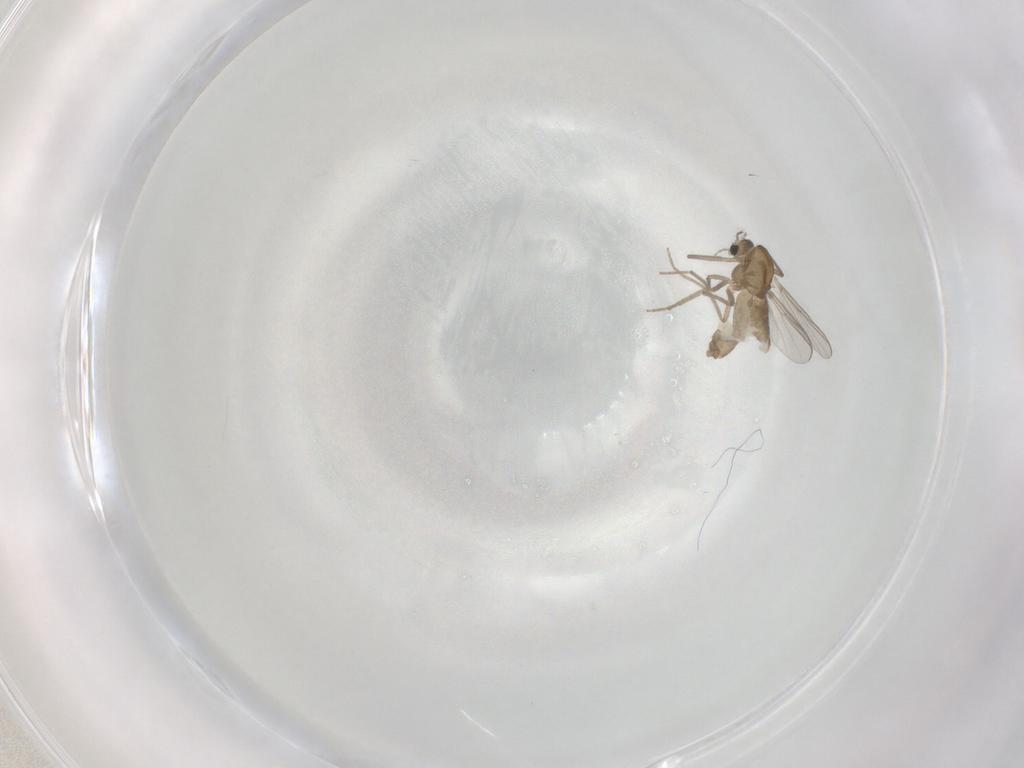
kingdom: Animalia
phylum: Arthropoda
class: Insecta
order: Diptera
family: Chironomidae
